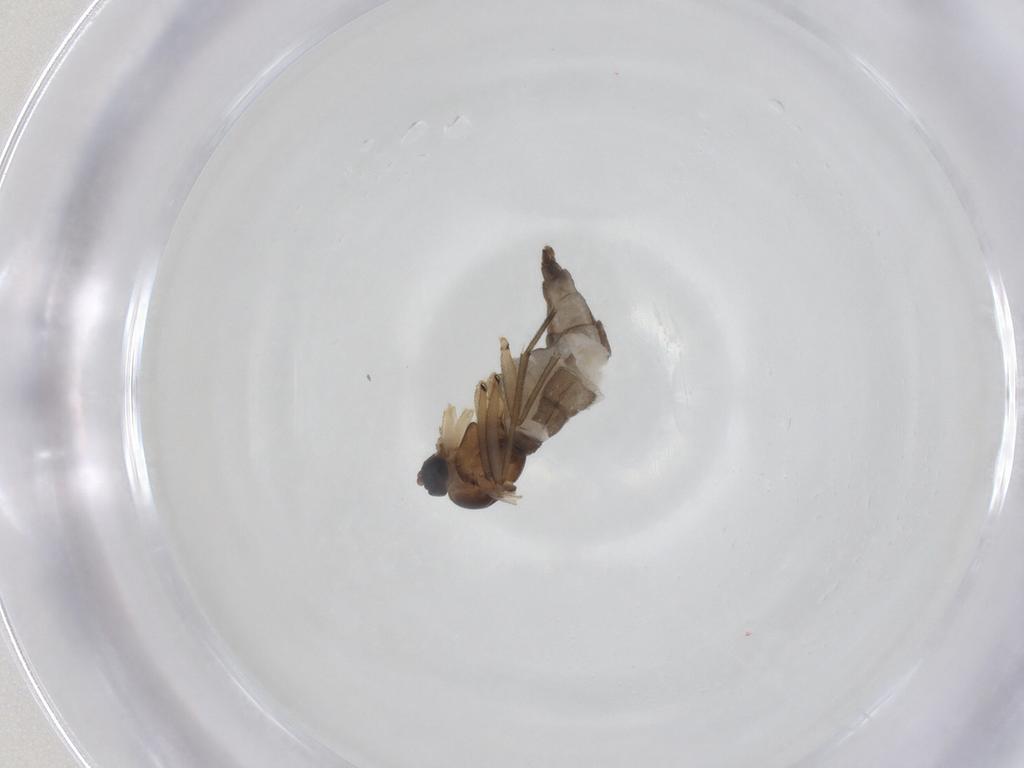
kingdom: Animalia
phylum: Arthropoda
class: Insecta
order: Diptera
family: Sciaridae
